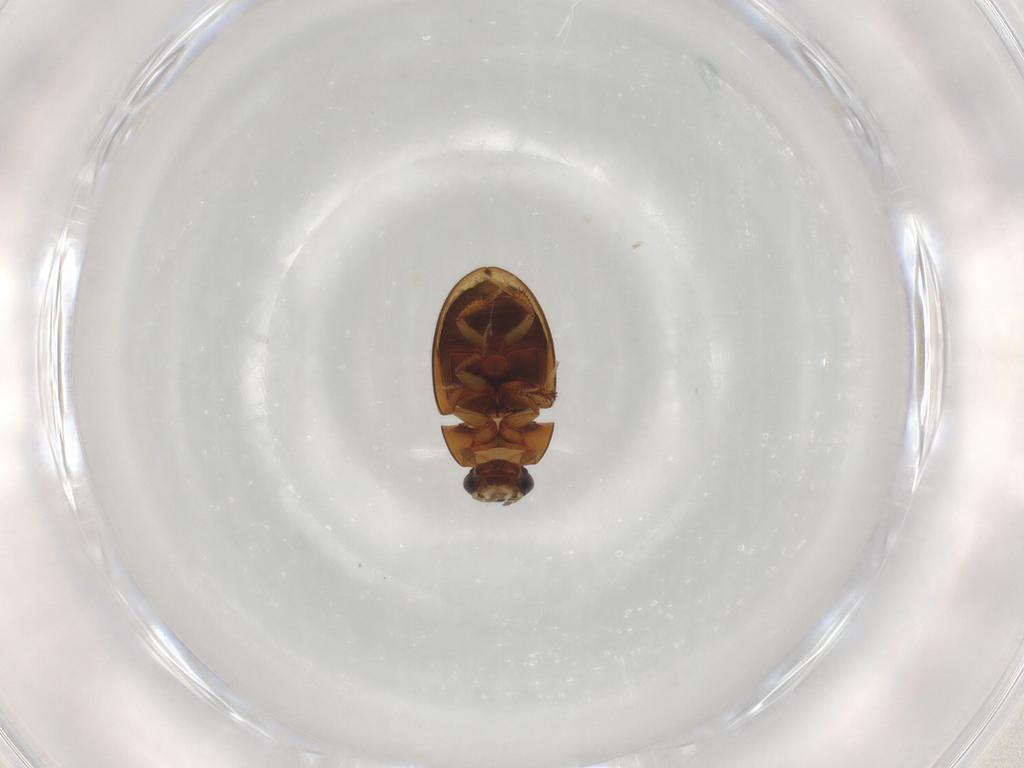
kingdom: Animalia
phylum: Arthropoda
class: Insecta
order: Coleoptera
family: Hydrophilidae
